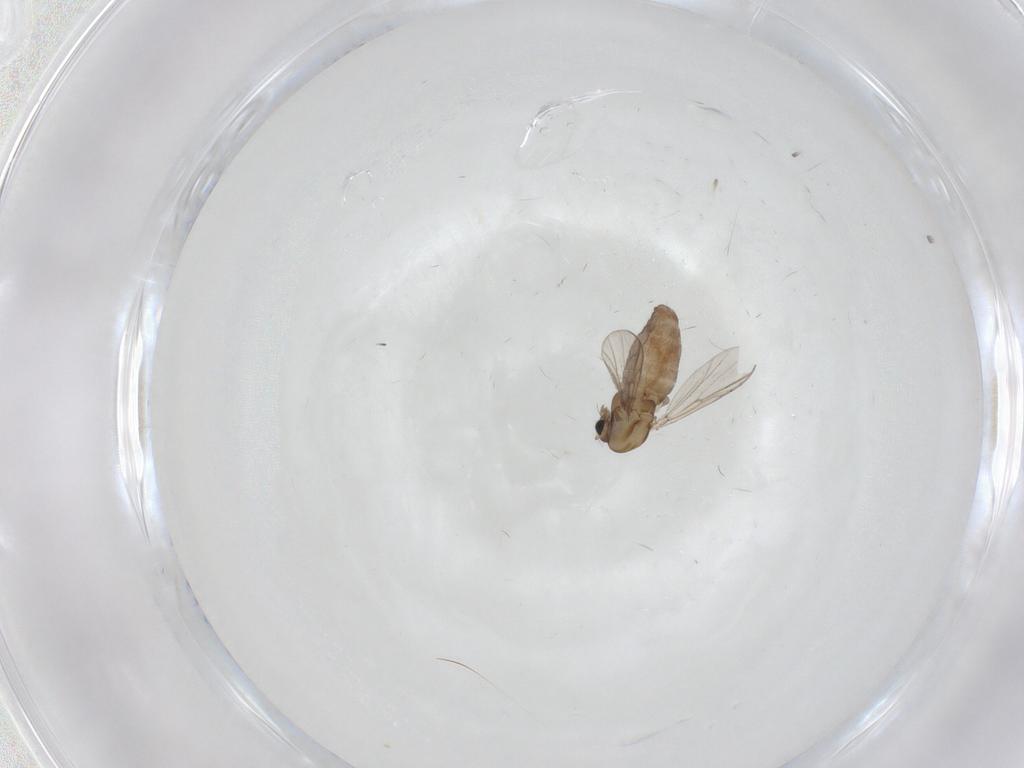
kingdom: Animalia
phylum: Arthropoda
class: Insecta
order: Diptera
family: Chironomidae
